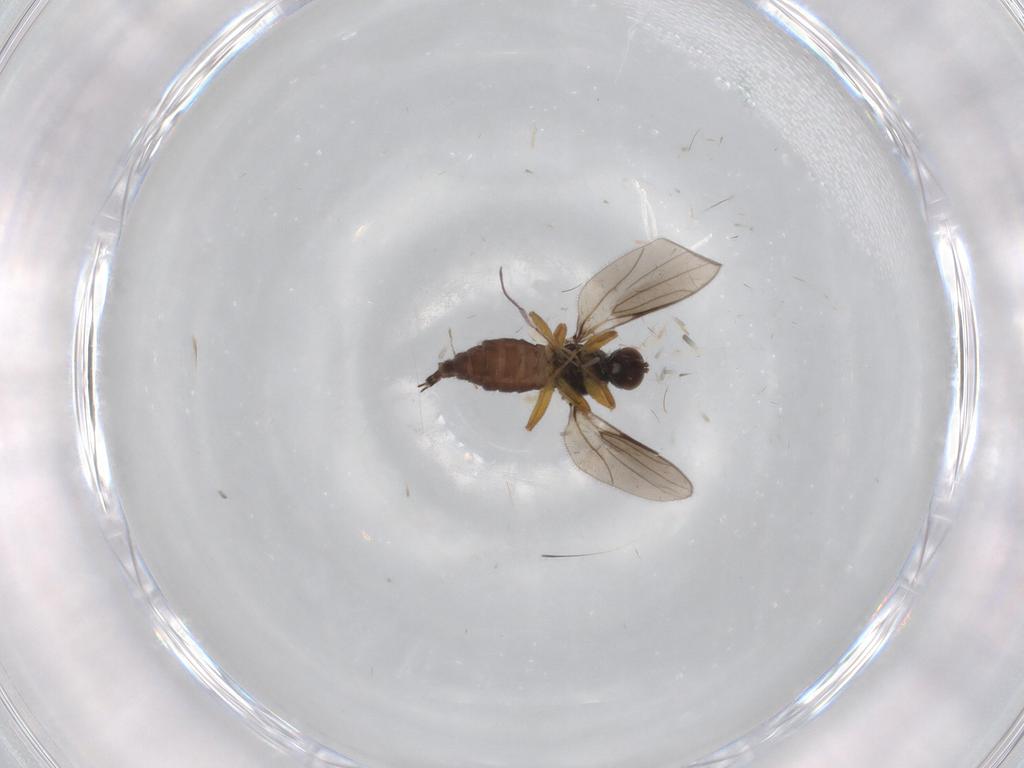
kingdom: Animalia
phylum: Arthropoda
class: Insecta
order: Diptera
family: Hybotidae
